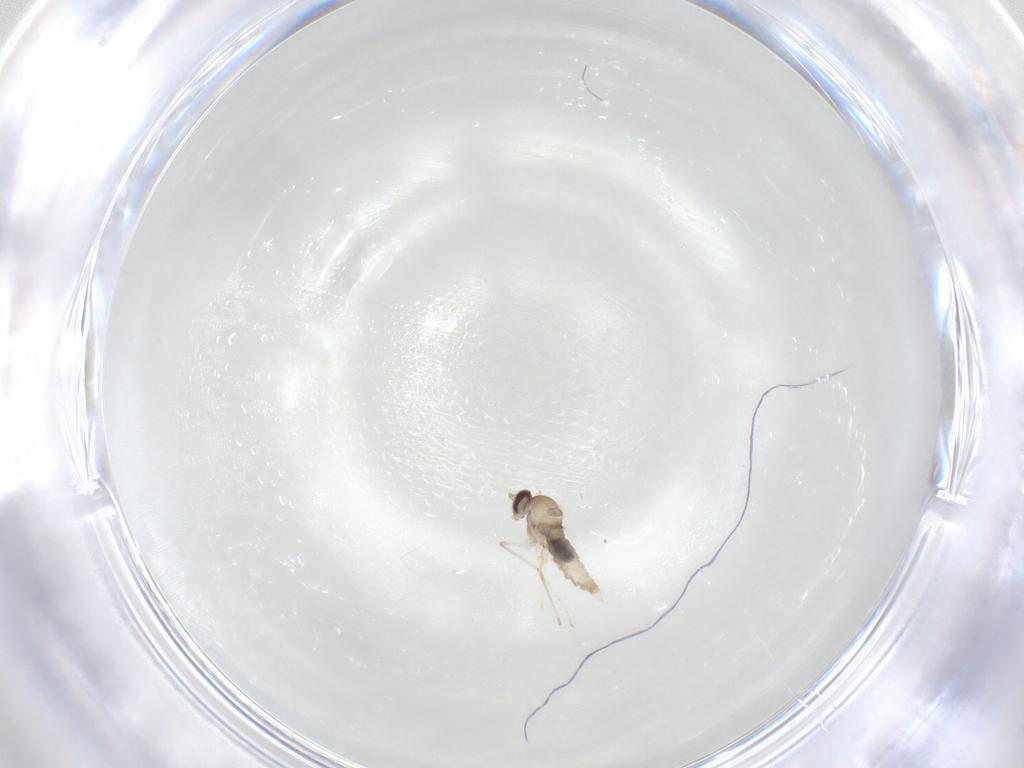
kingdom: Animalia
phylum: Arthropoda
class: Insecta
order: Diptera
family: Cecidomyiidae
